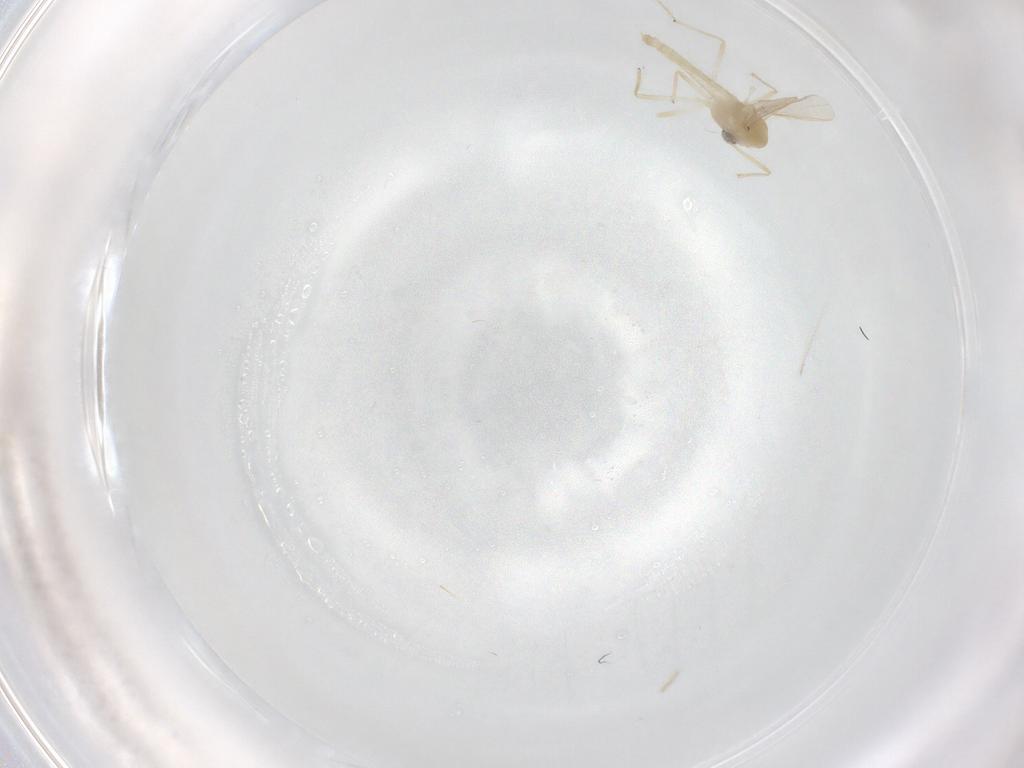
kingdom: Animalia
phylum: Arthropoda
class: Insecta
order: Diptera
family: Chironomidae
